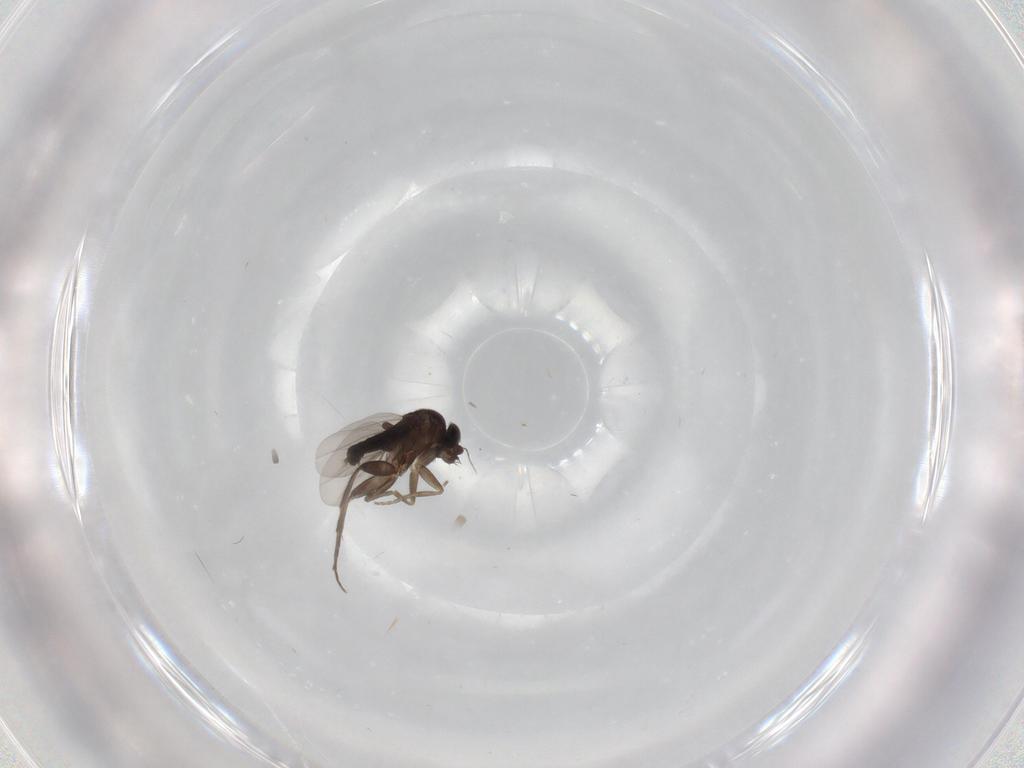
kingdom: Animalia
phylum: Arthropoda
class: Insecta
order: Diptera
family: Phoridae
